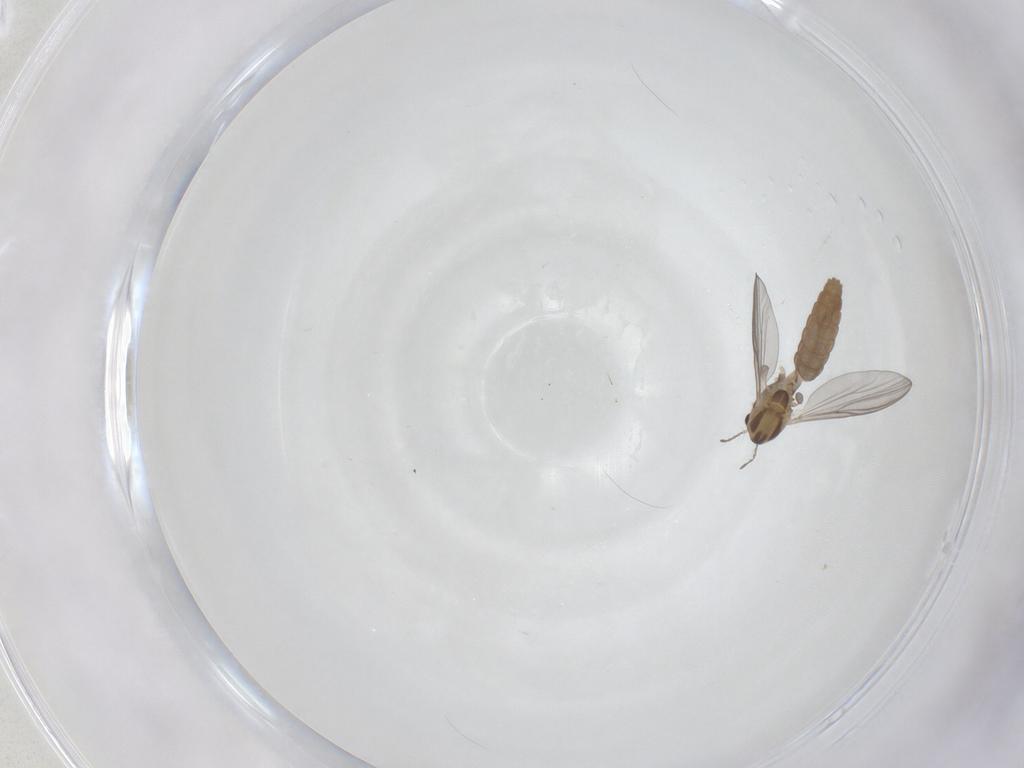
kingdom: Animalia
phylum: Arthropoda
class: Insecta
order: Diptera
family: Chironomidae
